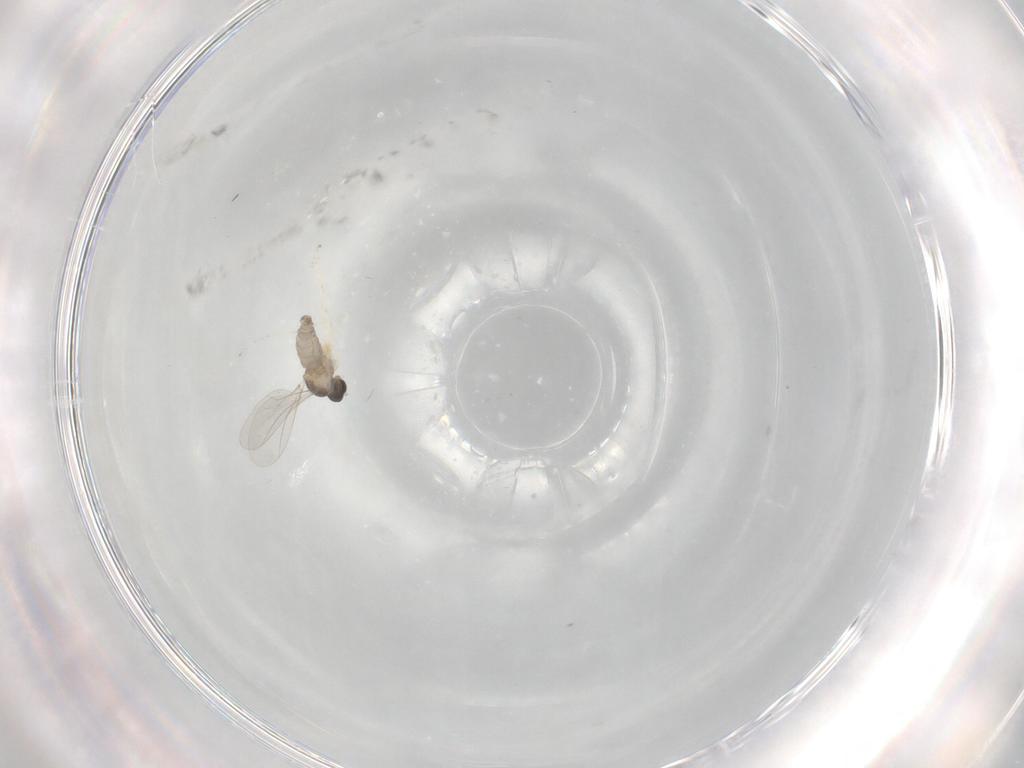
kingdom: Animalia
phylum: Arthropoda
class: Insecta
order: Diptera
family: Cecidomyiidae
